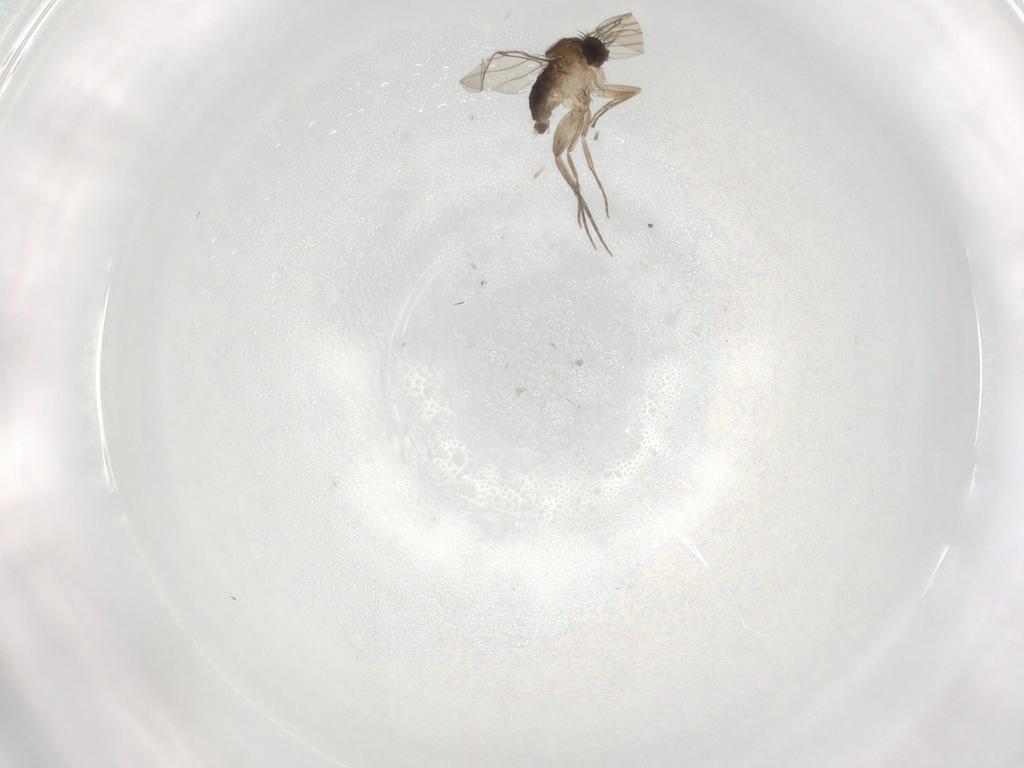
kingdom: Animalia
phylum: Arthropoda
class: Insecta
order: Diptera
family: Phoridae
